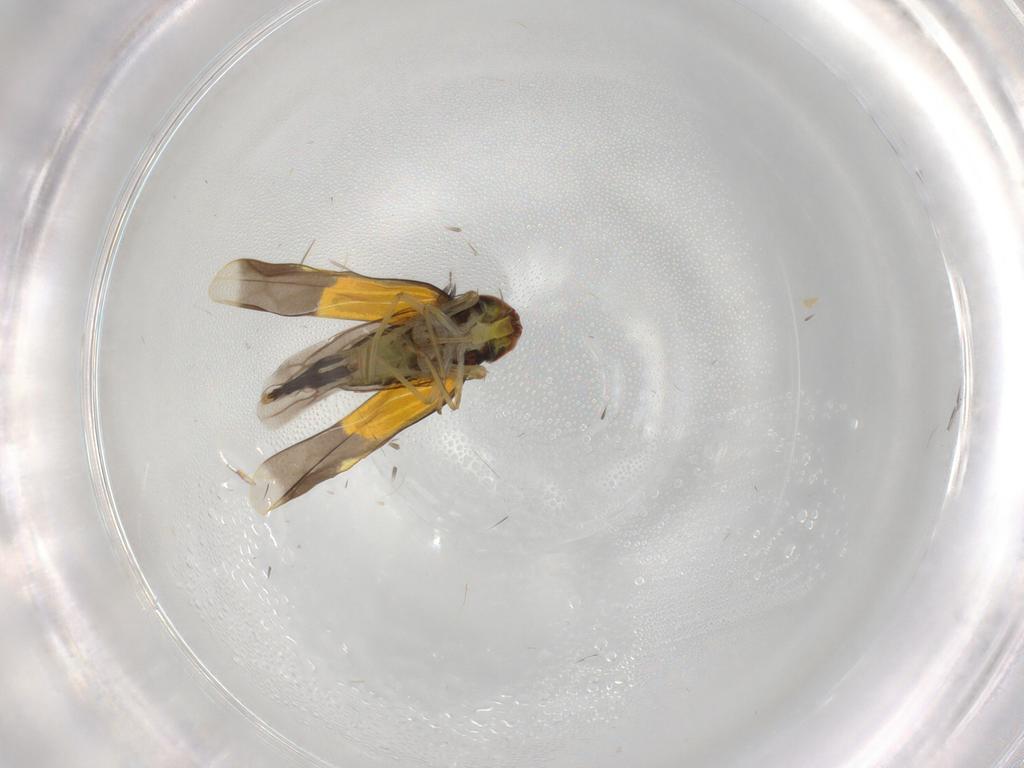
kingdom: Animalia
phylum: Arthropoda
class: Insecta
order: Hemiptera
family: Cicadellidae
